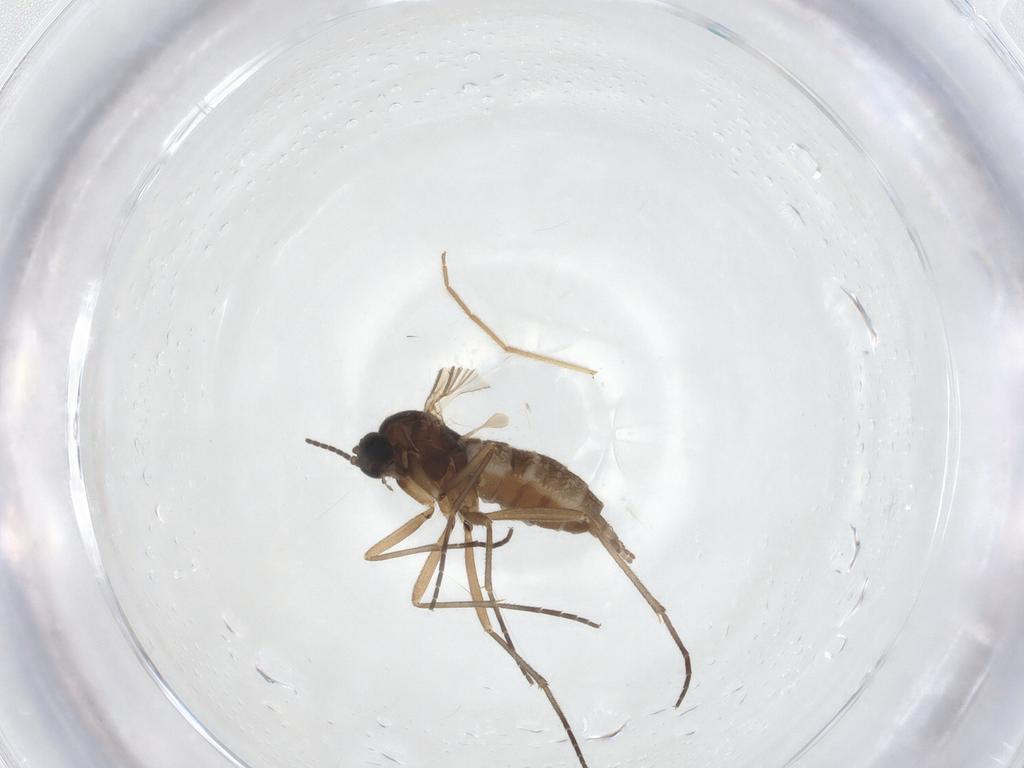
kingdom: Animalia
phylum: Arthropoda
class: Insecta
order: Diptera
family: Sciaridae
